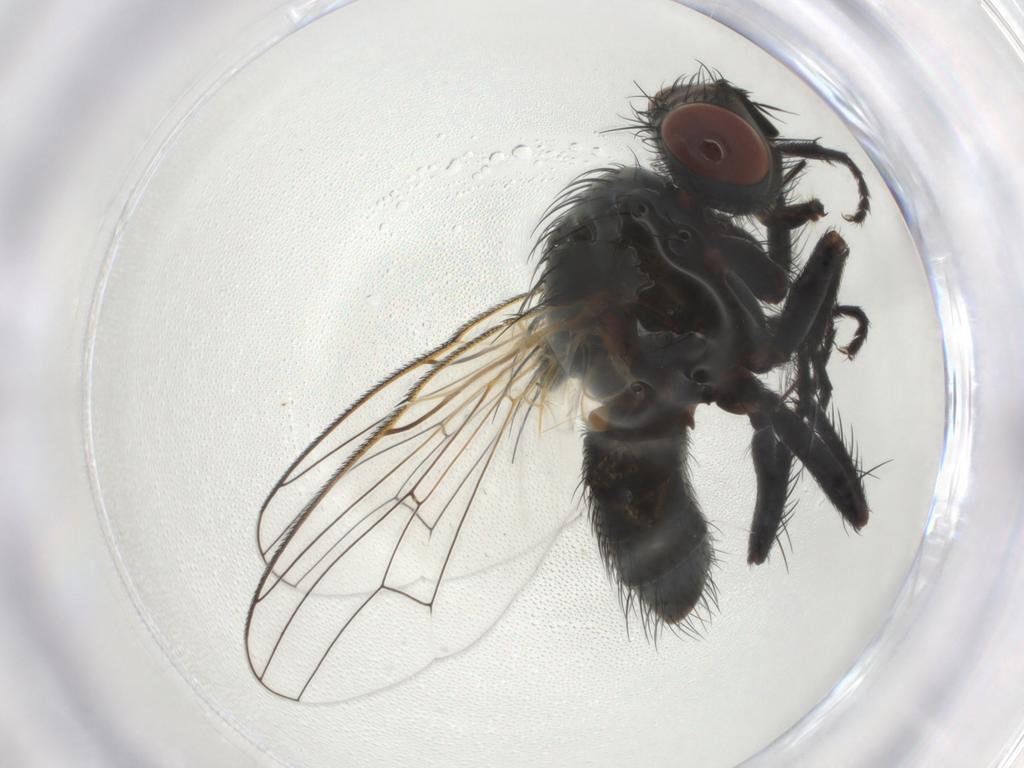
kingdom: Animalia
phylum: Arthropoda
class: Insecta
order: Diptera
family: Muscidae
